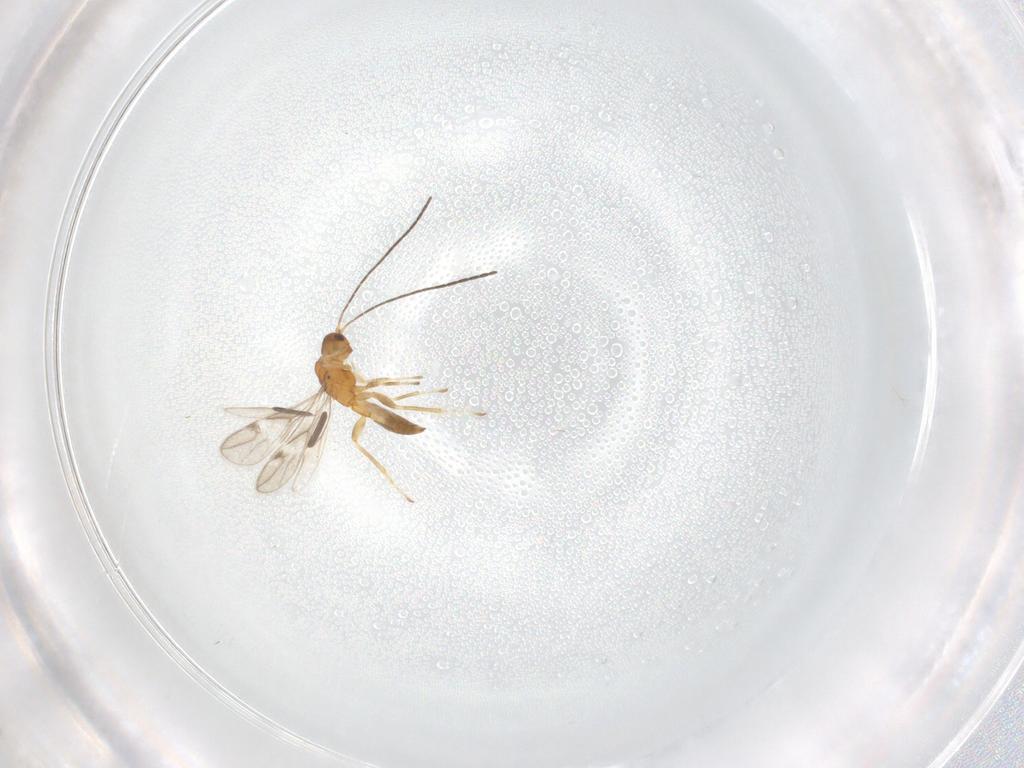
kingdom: Animalia
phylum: Arthropoda
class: Insecta
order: Hymenoptera
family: Braconidae
